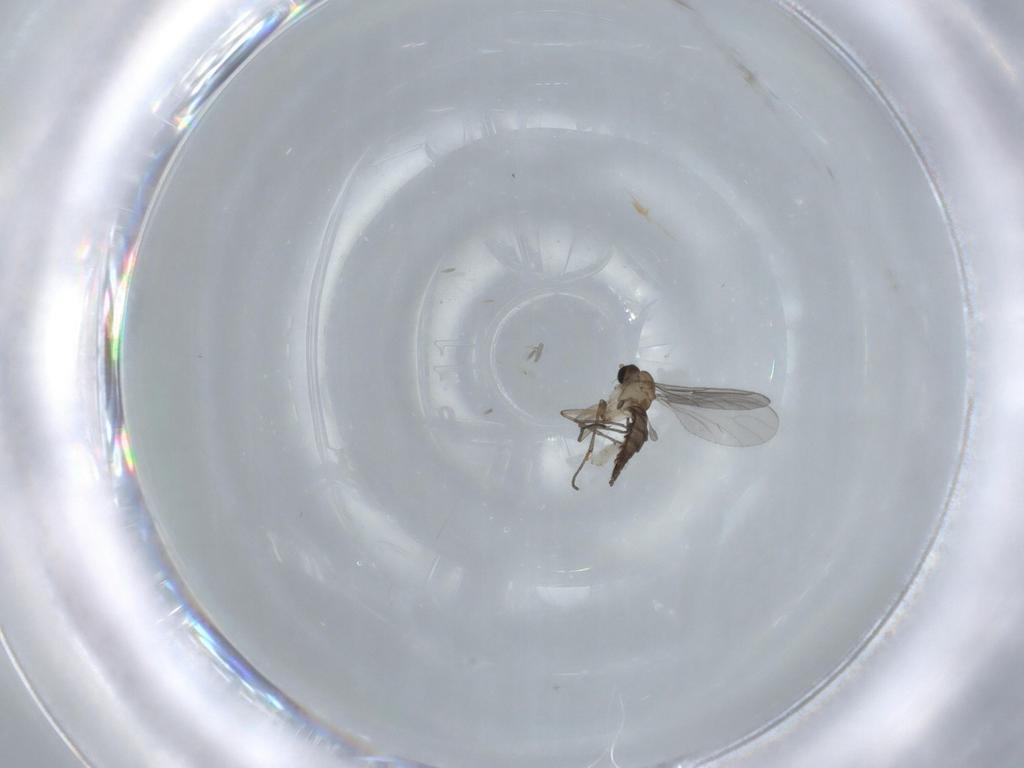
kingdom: Animalia
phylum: Arthropoda
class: Insecta
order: Diptera
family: Sciaridae
